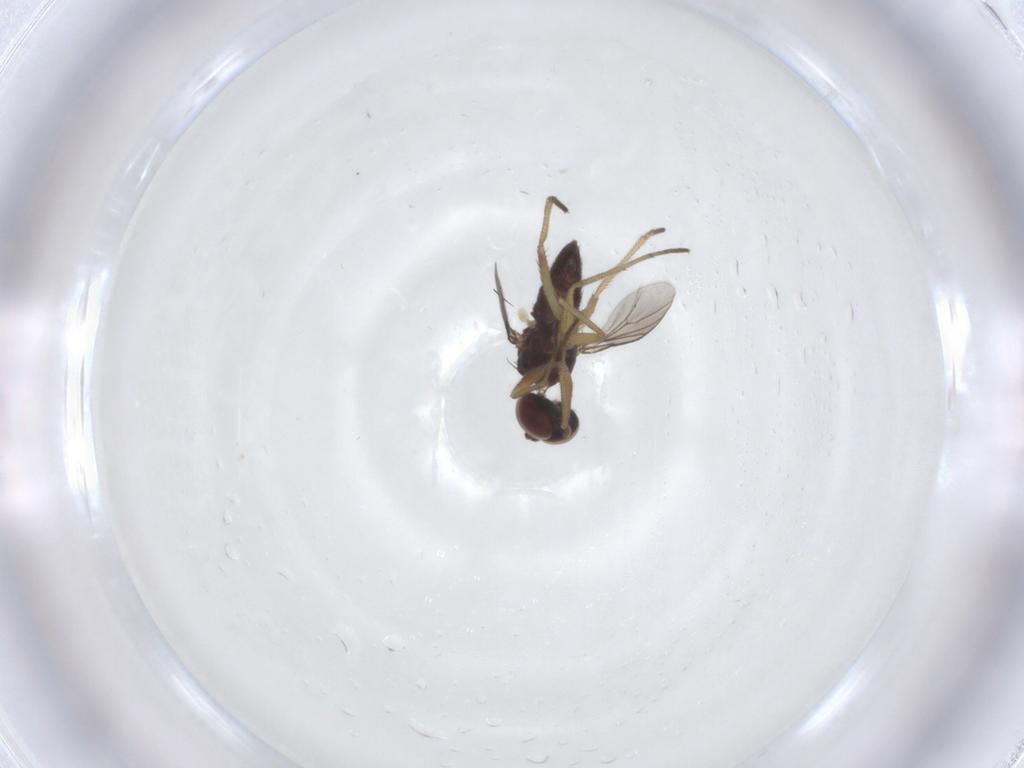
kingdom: Animalia
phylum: Arthropoda
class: Insecta
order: Diptera
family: Dolichopodidae
